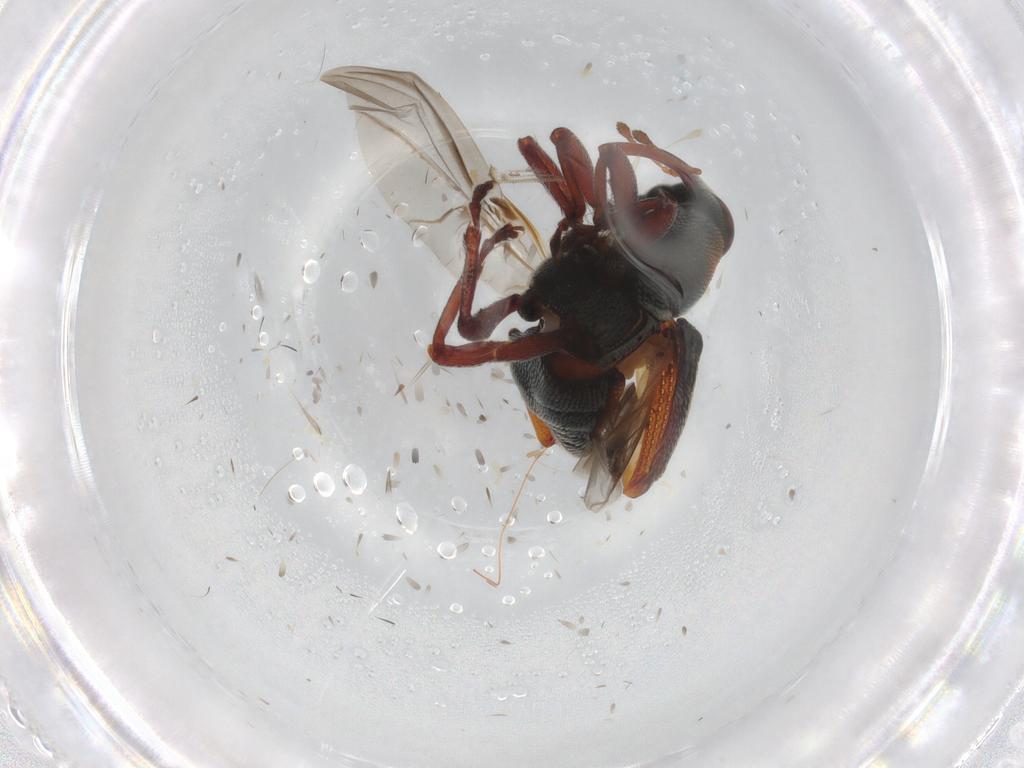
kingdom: Animalia
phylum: Arthropoda
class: Insecta
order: Coleoptera
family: Curculionidae
